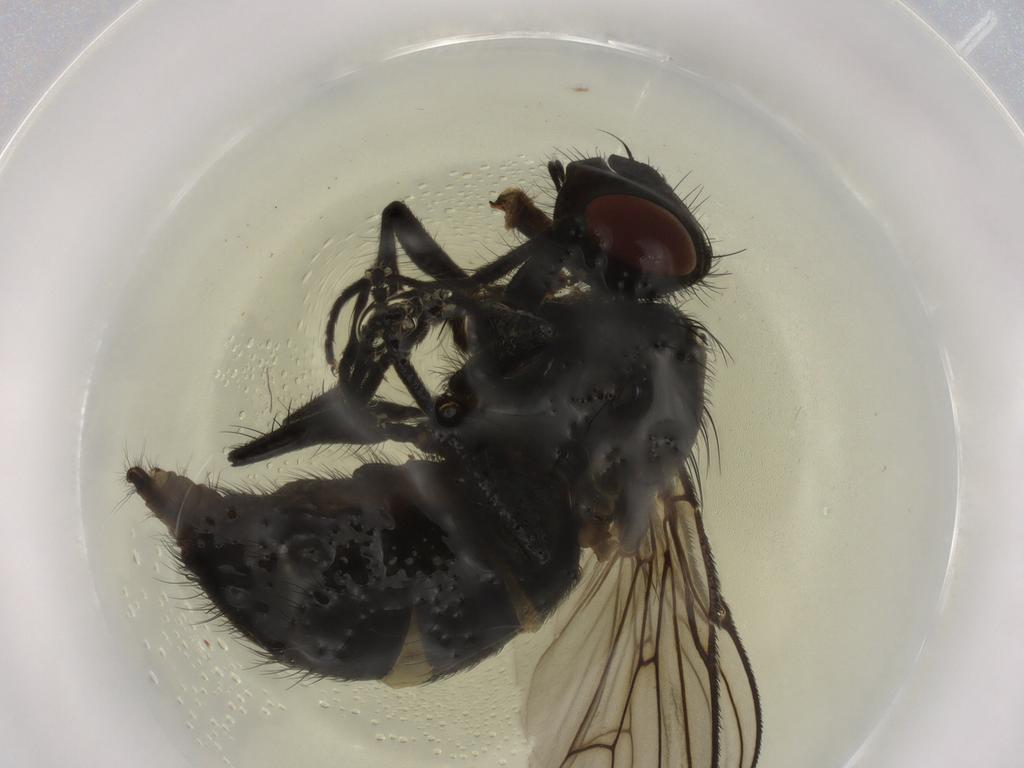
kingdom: Animalia
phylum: Arthropoda
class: Insecta
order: Diptera
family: Muscidae
